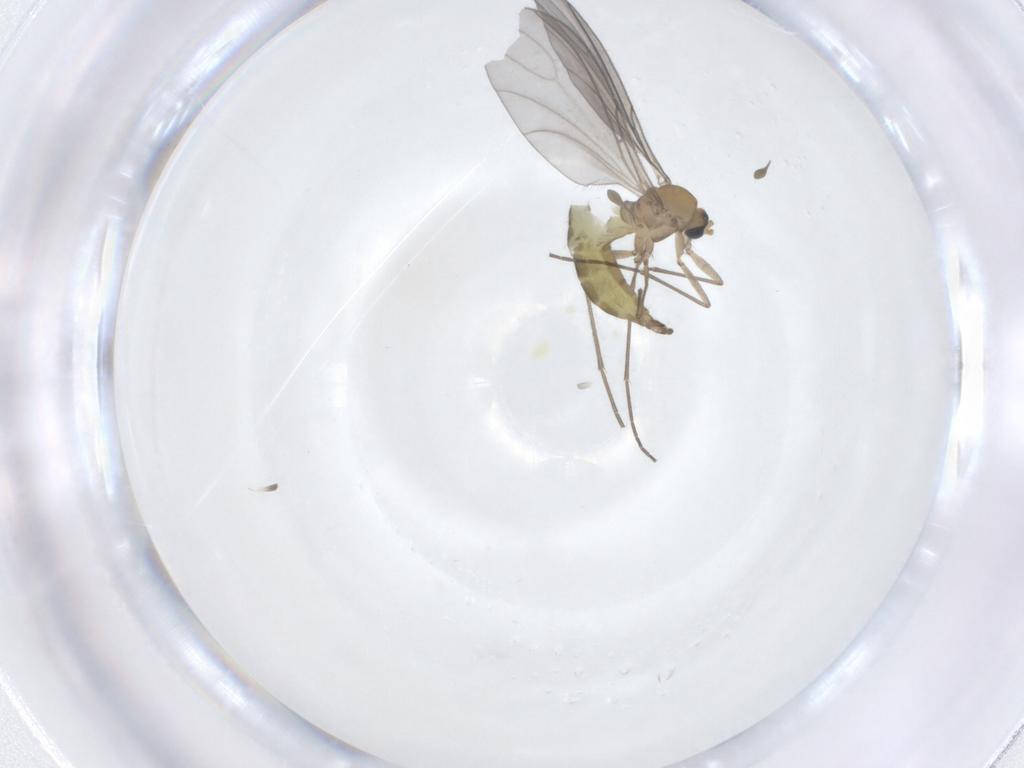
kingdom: Animalia
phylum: Arthropoda
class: Insecta
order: Diptera
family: Sciaridae
